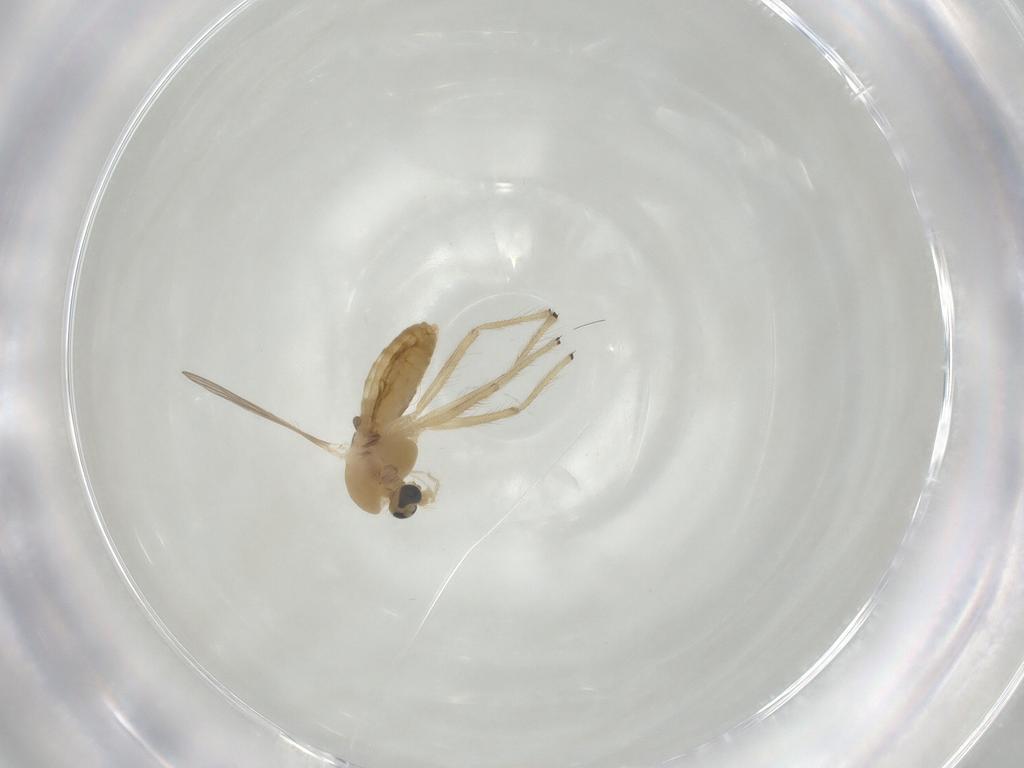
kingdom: Animalia
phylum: Arthropoda
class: Insecta
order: Diptera
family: Chironomidae
